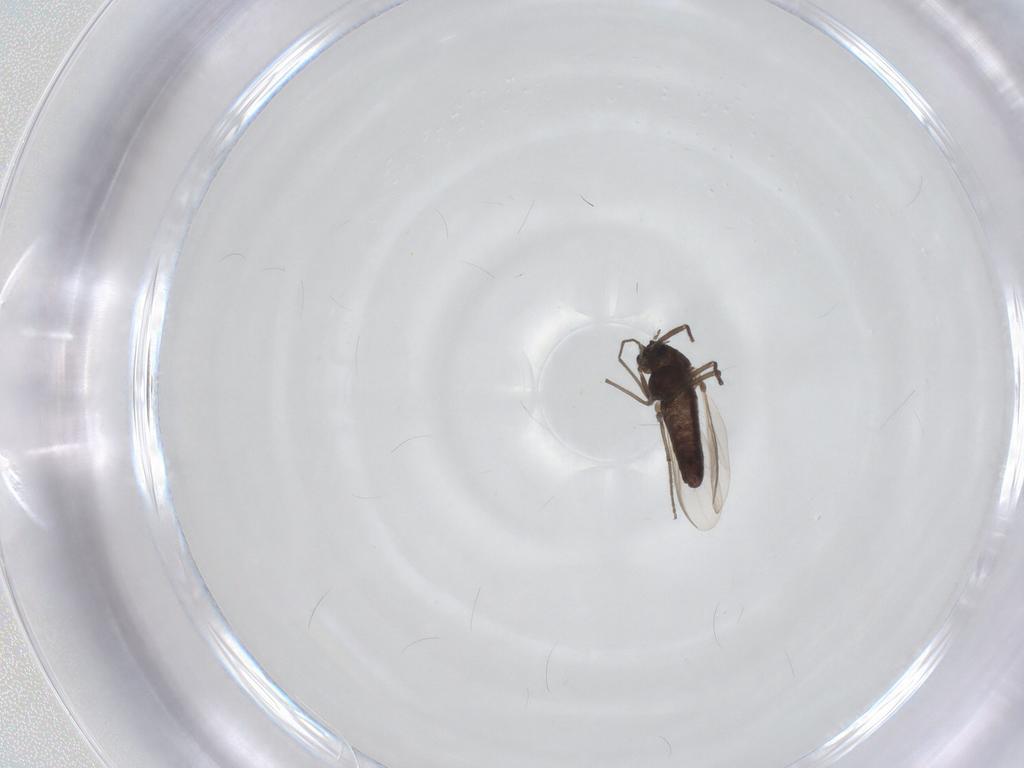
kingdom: Animalia
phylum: Arthropoda
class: Insecta
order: Diptera
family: Chironomidae
